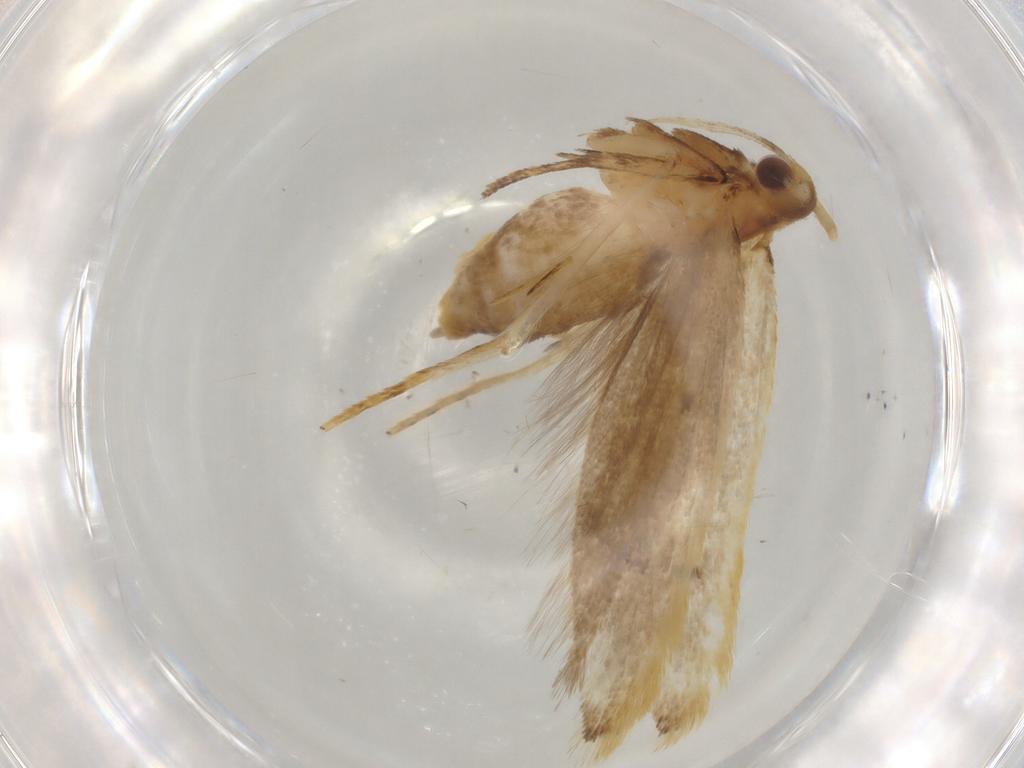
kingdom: Animalia
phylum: Arthropoda
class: Insecta
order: Lepidoptera
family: Lecithoceridae
